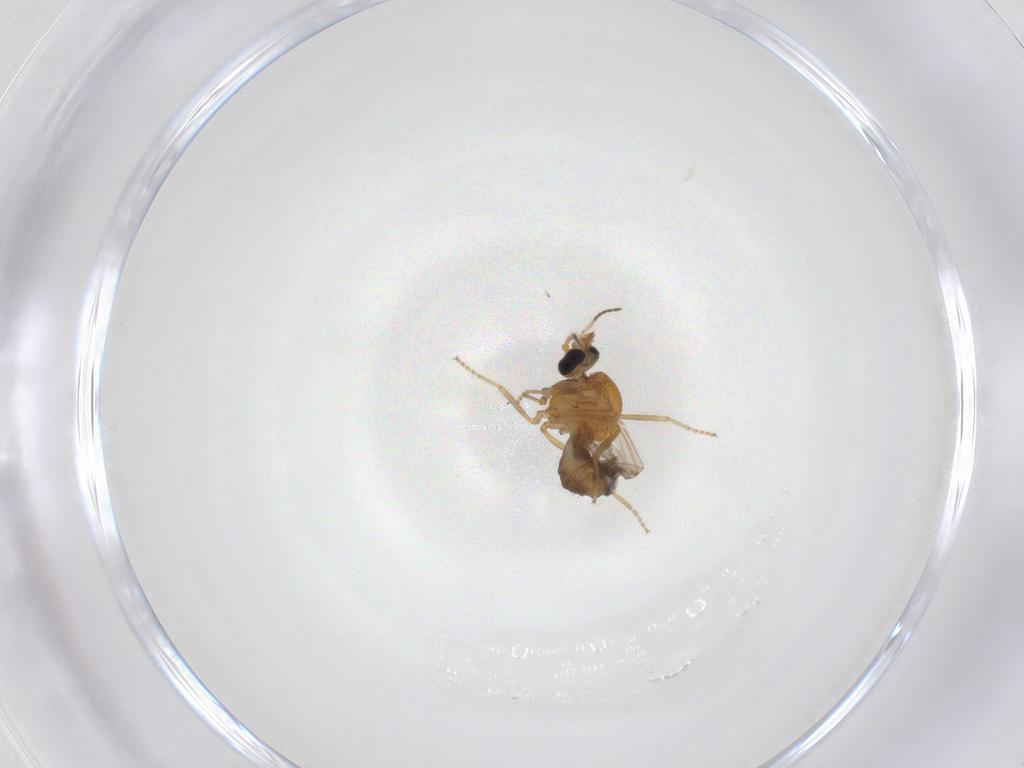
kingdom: Animalia
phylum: Arthropoda
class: Insecta
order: Diptera
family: Ceratopogonidae
